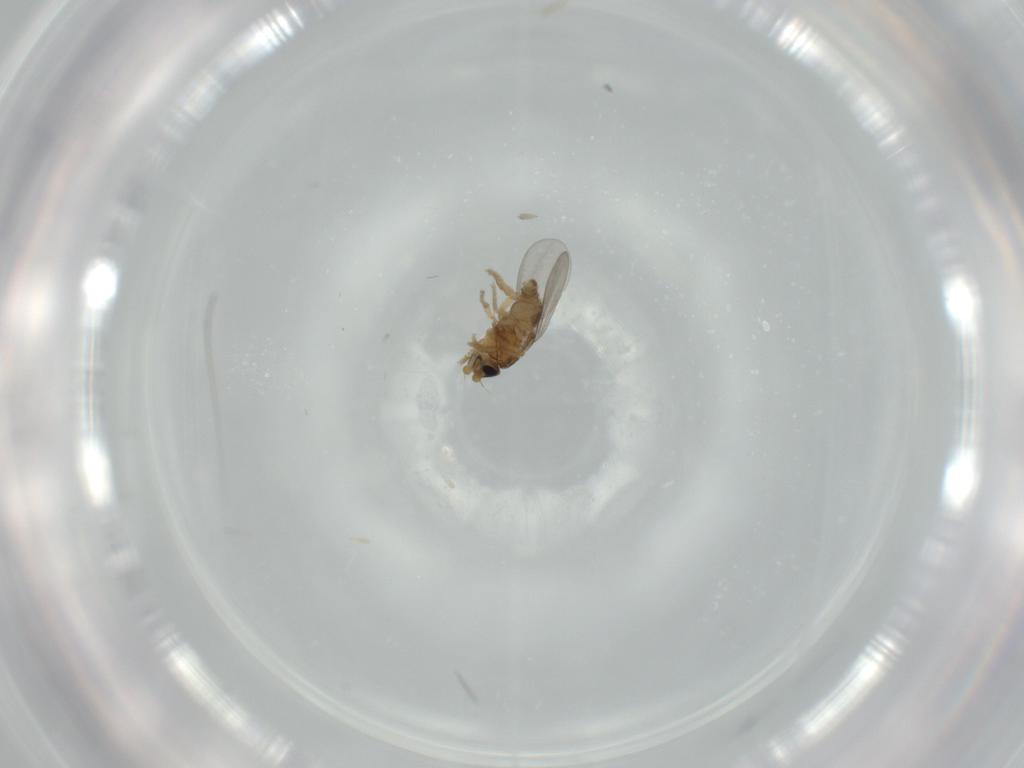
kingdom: Animalia
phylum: Arthropoda
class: Insecta
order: Diptera
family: Phoridae
